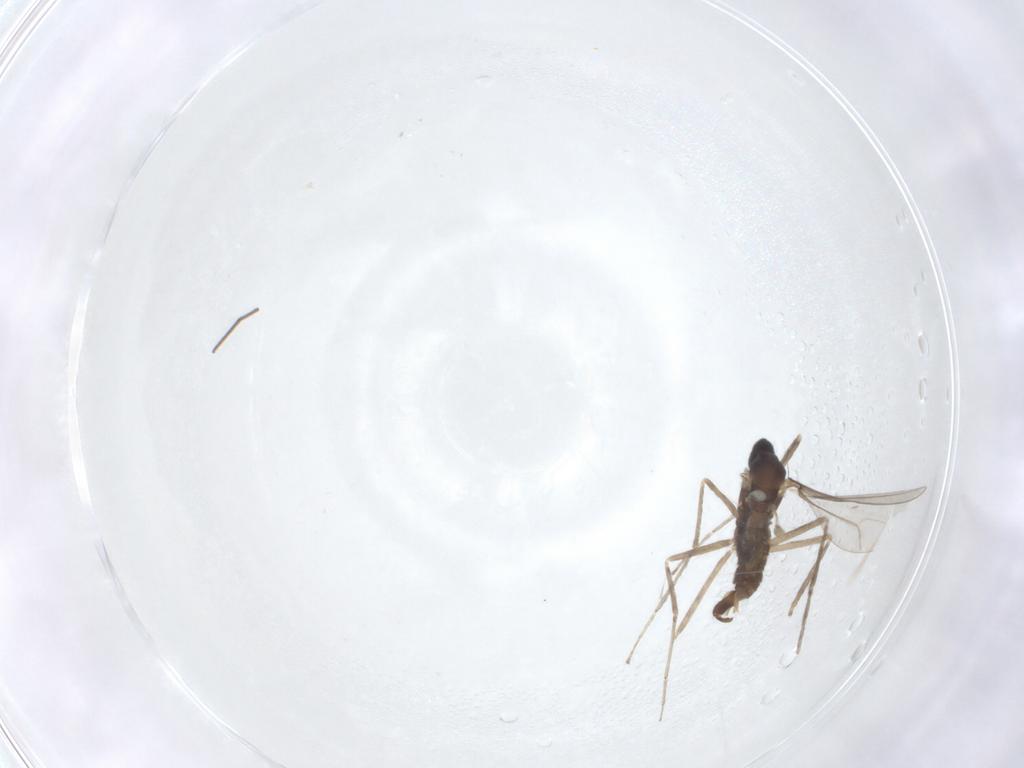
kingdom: Animalia
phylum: Arthropoda
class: Insecta
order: Diptera
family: Cecidomyiidae
